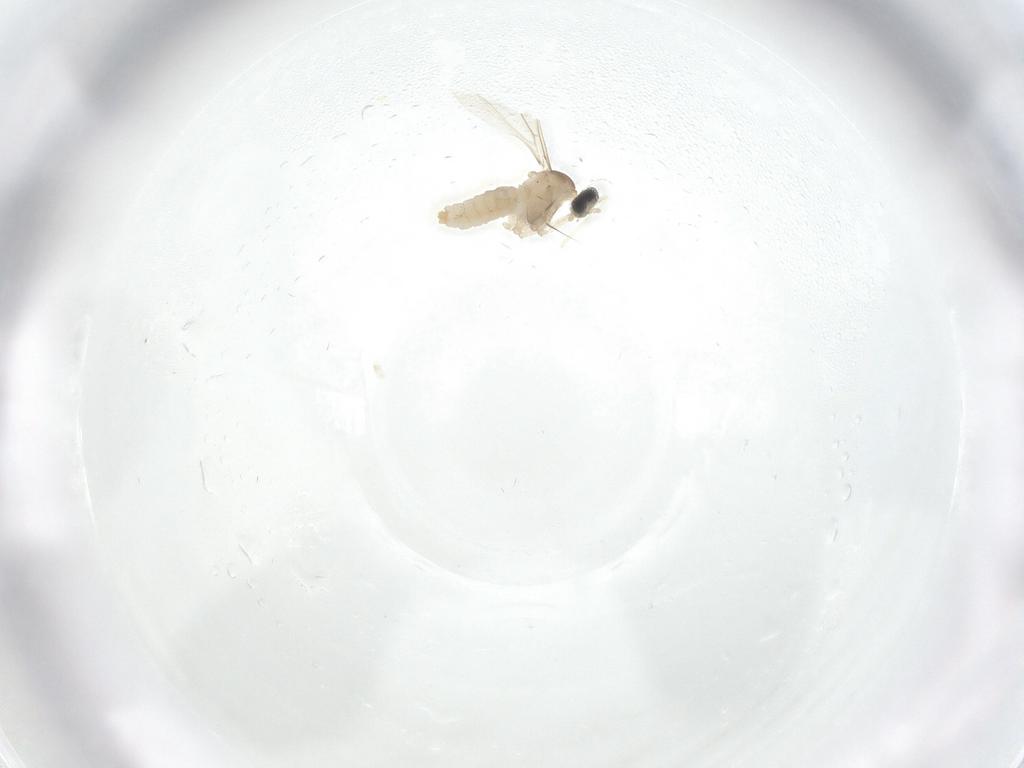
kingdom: Animalia
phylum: Arthropoda
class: Insecta
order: Diptera
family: Cecidomyiidae
